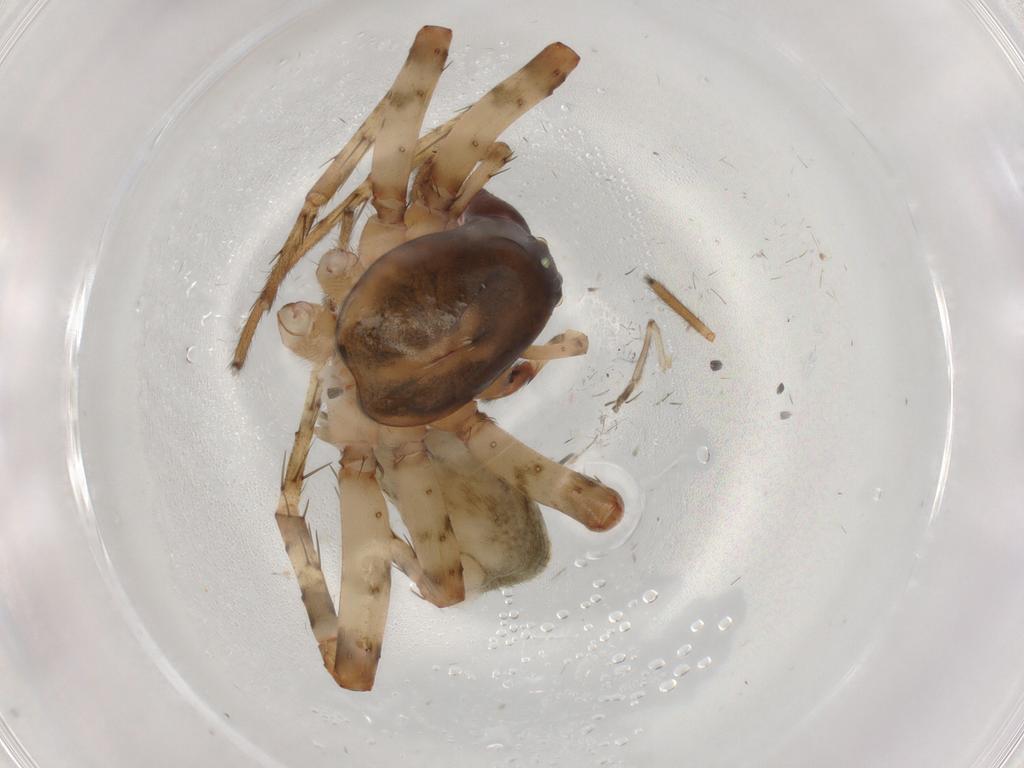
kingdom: Animalia
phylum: Arthropoda
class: Arachnida
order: Araneae
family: Anyphaenidae
